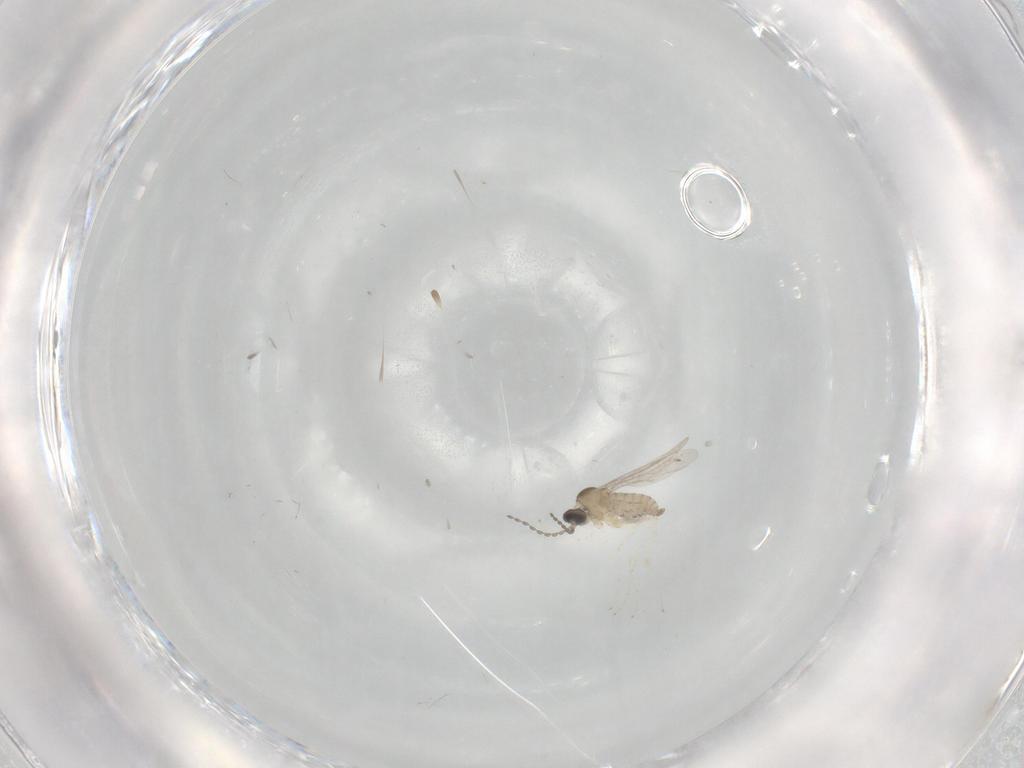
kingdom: Animalia
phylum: Arthropoda
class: Insecta
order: Diptera
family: Cecidomyiidae
